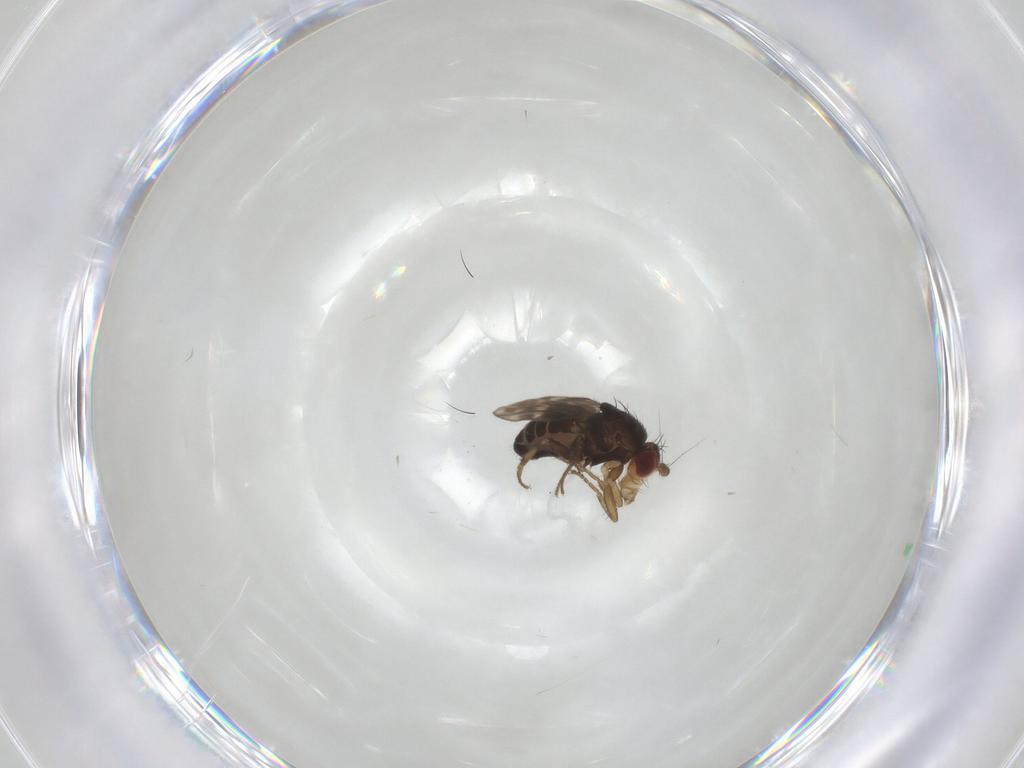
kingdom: Animalia
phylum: Arthropoda
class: Insecta
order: Diptera
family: Sphaeroceridae
